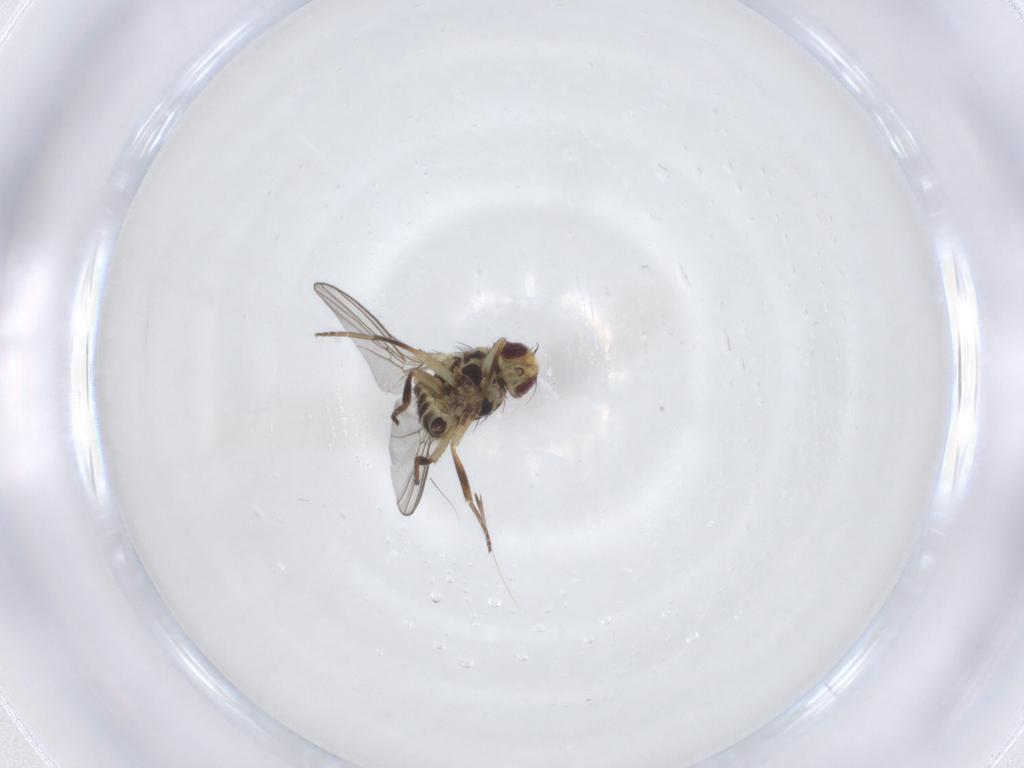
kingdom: Animalia
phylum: Arthropoda
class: Insecta
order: Diptera
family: Agromyzidae
